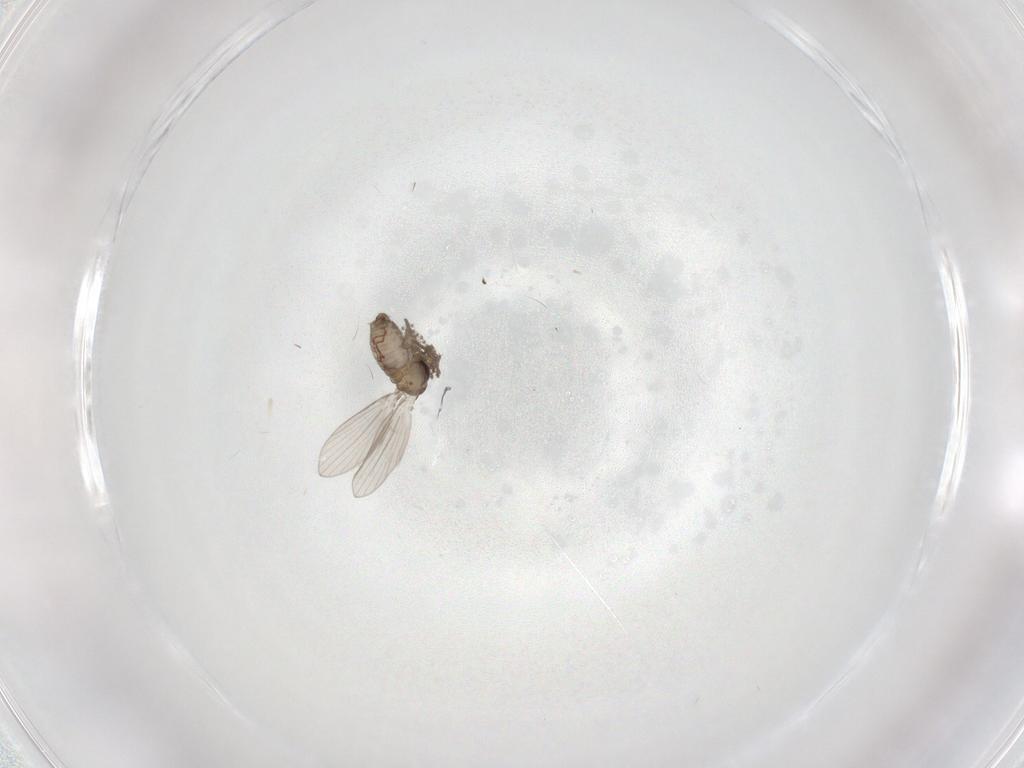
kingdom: Animalia
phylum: Arthropoda
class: Insecta
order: Diptera
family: Psychodidae
